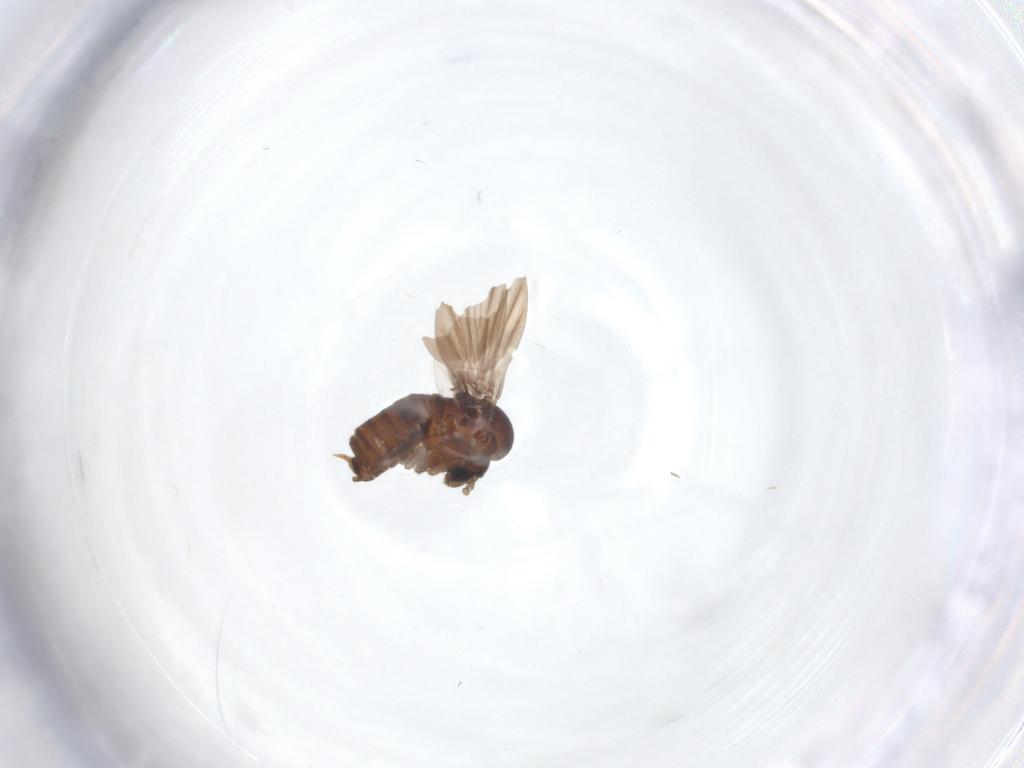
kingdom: Animalia
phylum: Arthropoda
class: Insecta
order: Diptera
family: Psychodidae
